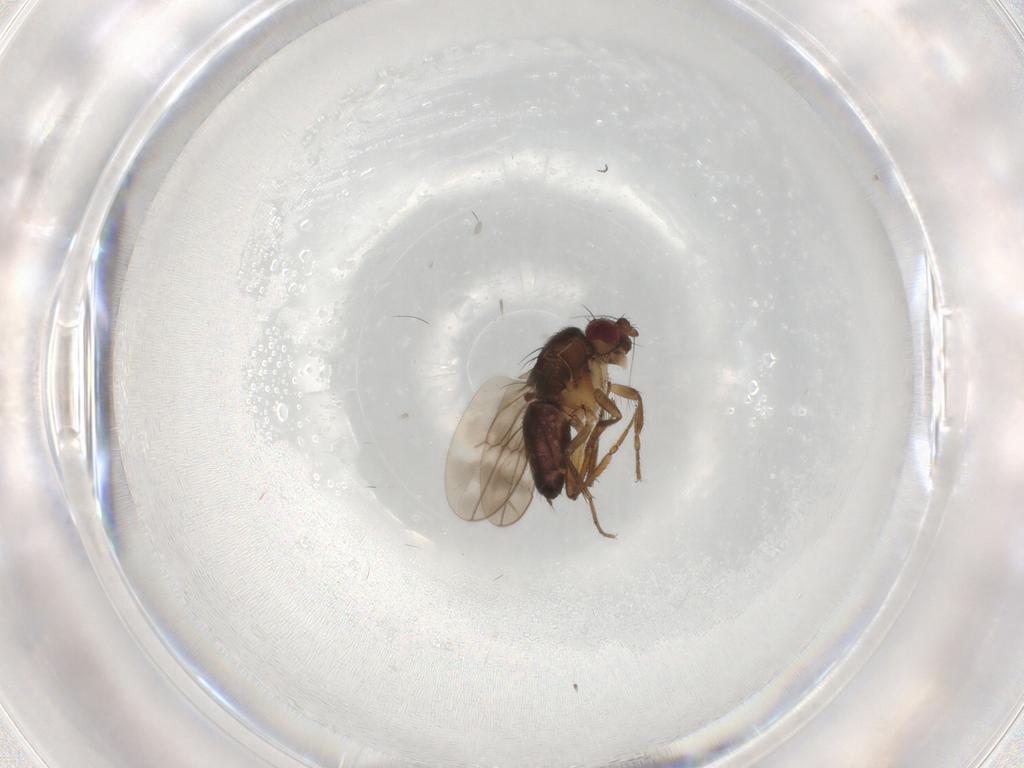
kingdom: Animalia
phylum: Arthropoda
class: Insecta
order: Diptera
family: Sphaeroceridae
